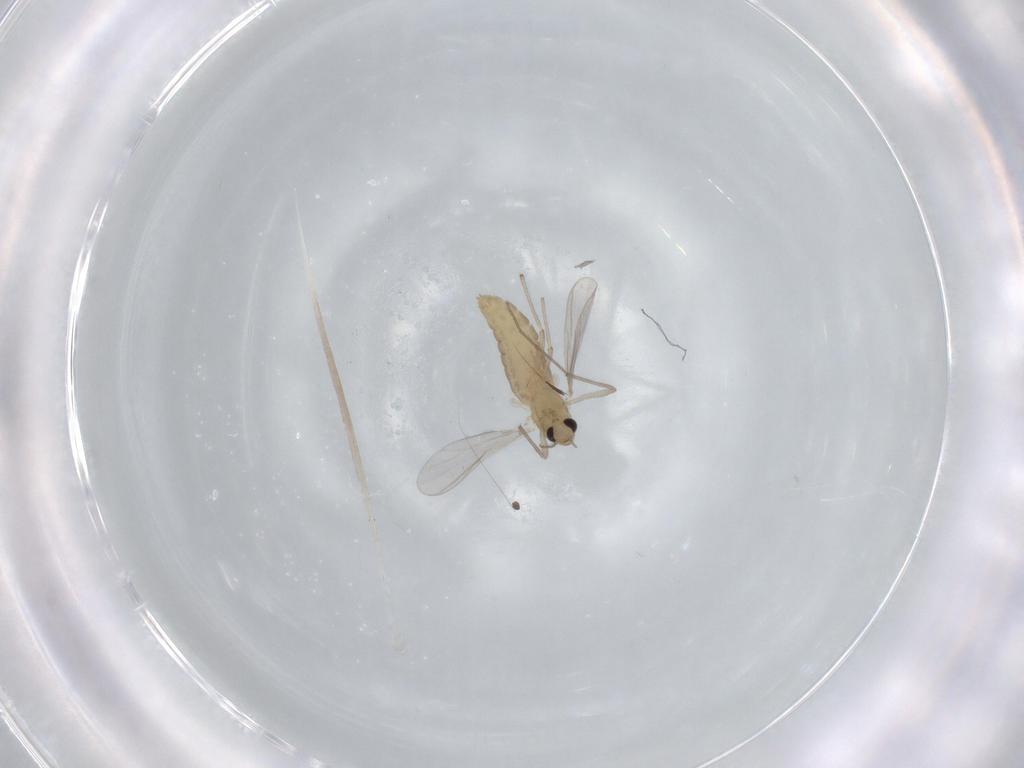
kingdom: Animalia
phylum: Arthropoda
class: Insecta
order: Diptera
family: Chironomidae
